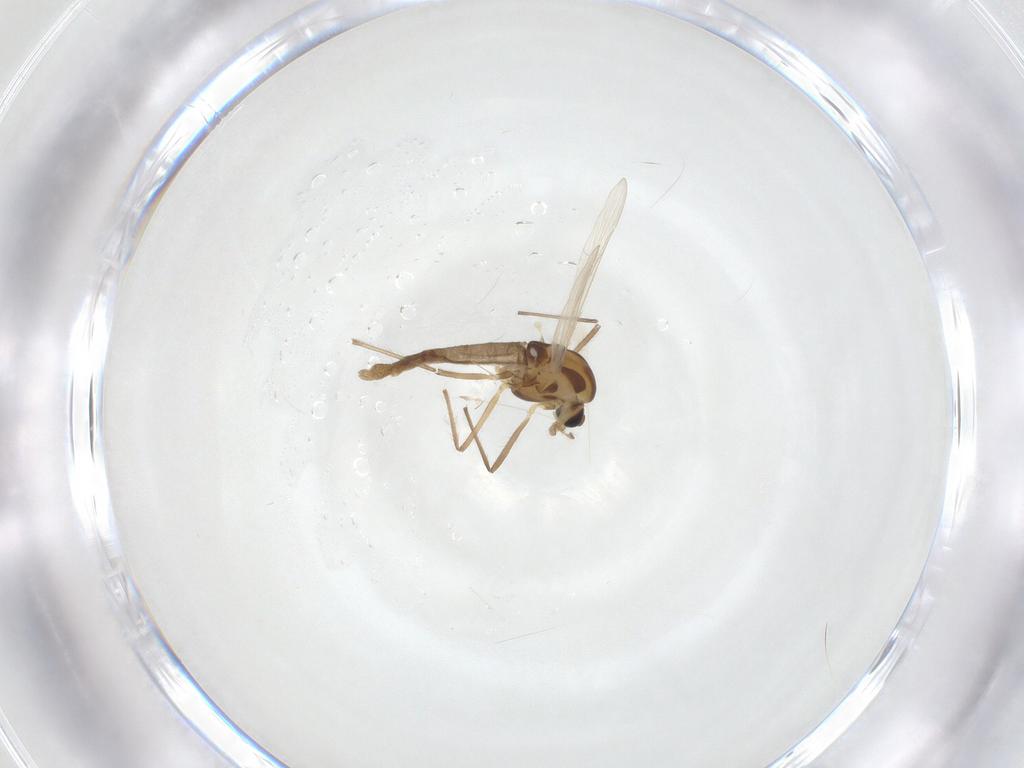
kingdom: Animalia
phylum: Arthropoda
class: Insecta
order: Diptera
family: Chironomidae
